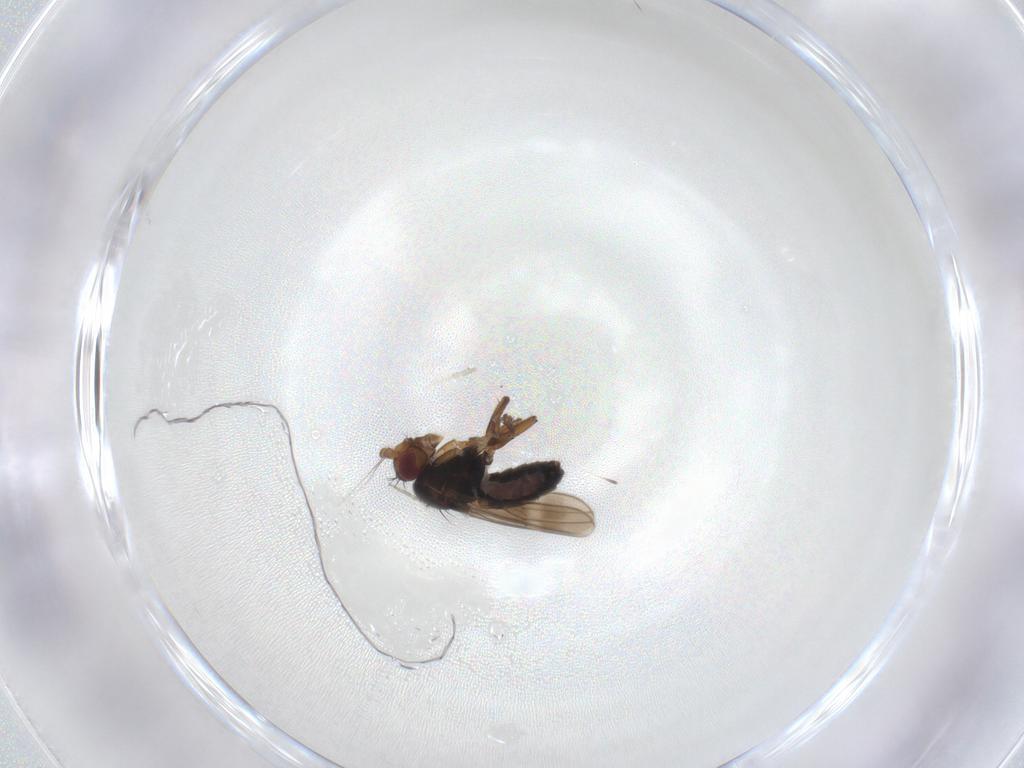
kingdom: Animalia
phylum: Arthropoda
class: Insecta
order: Diptera
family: Sphaeroceridae
